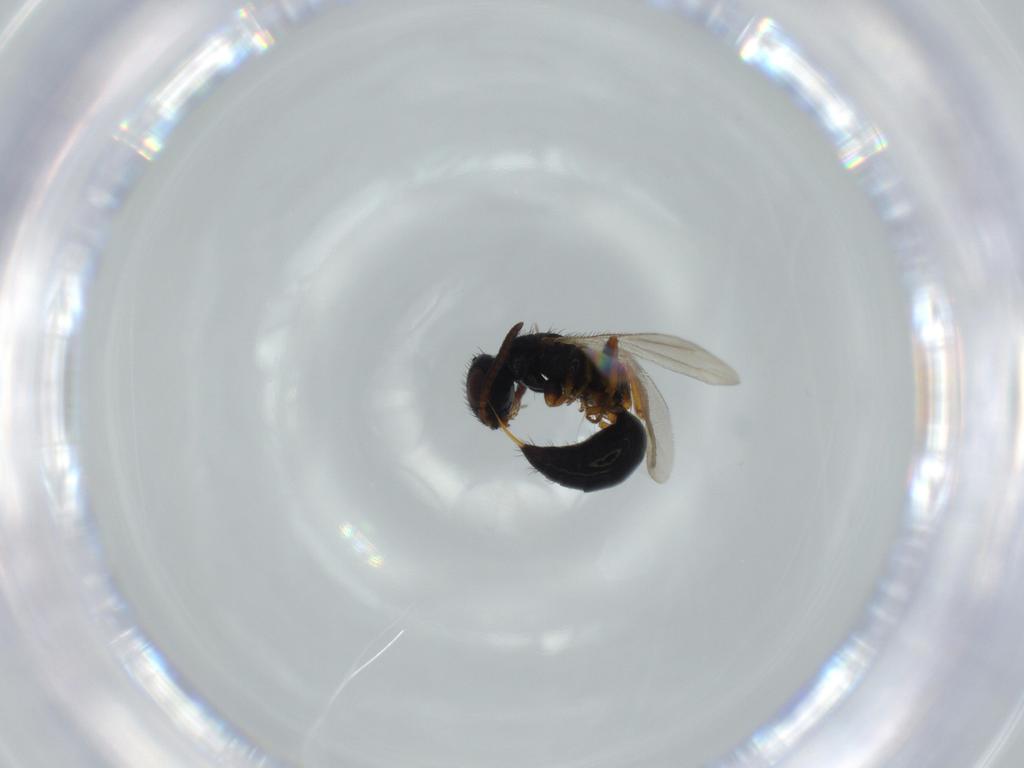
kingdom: Animalia
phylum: Arthropoda
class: Insecta
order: Hymenoptera
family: Bethylidae
